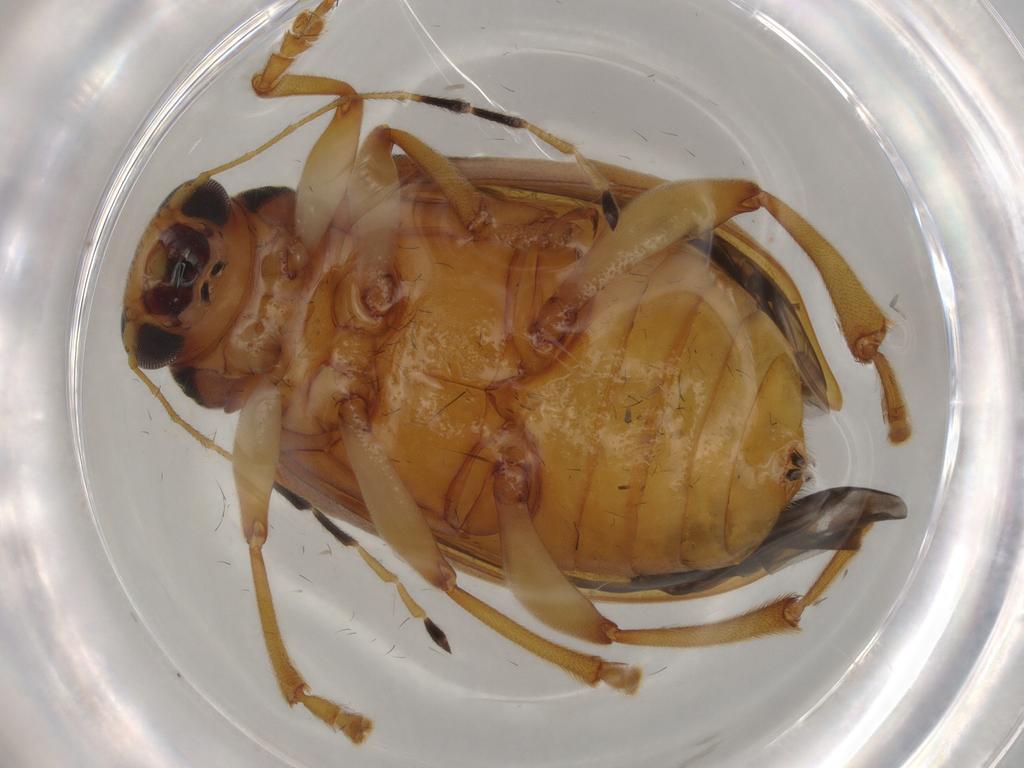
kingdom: Animalia
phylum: Arthropoda
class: Insecta
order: Coleoptera
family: Chrysomelidae
